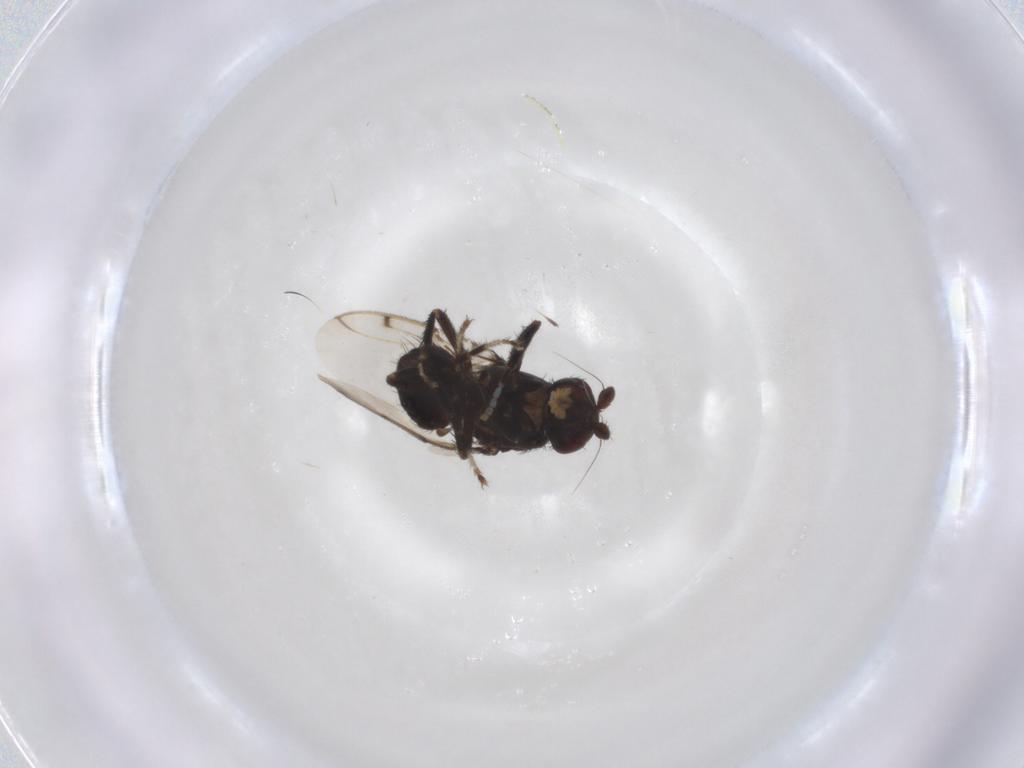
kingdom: Animalia
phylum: Arthropoda
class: Insecta
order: Diptera
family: Sphaeroceridae
